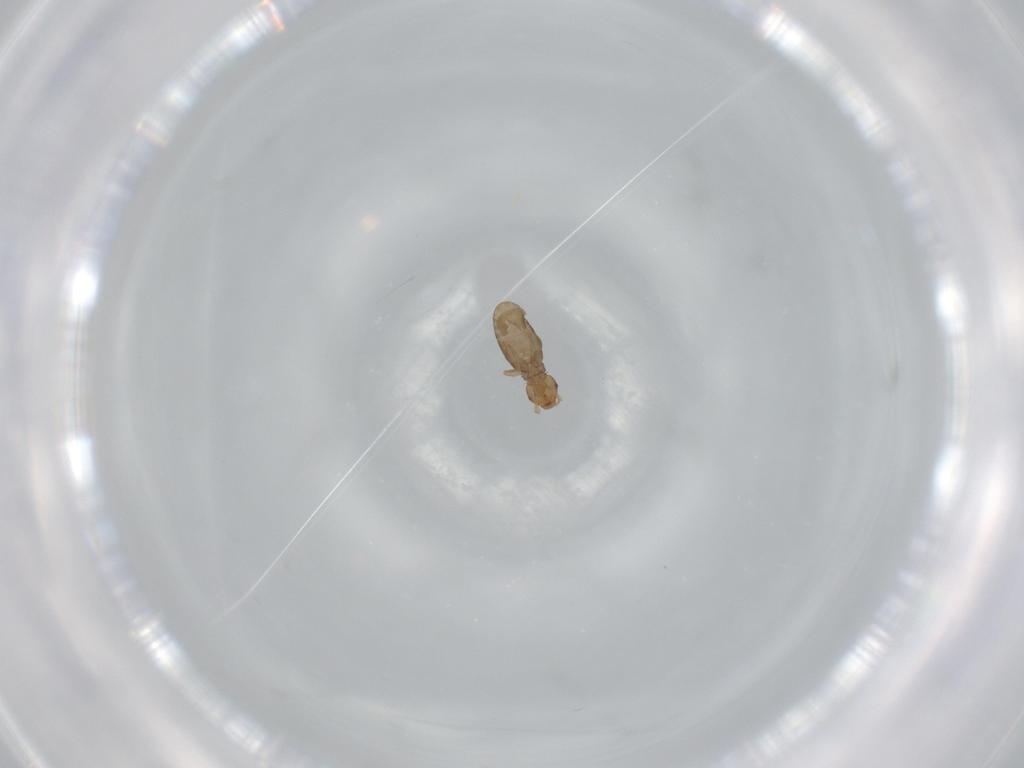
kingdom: Animalia
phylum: Arthropoda
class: Insecta
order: Psocodea
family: Liposcelididae
